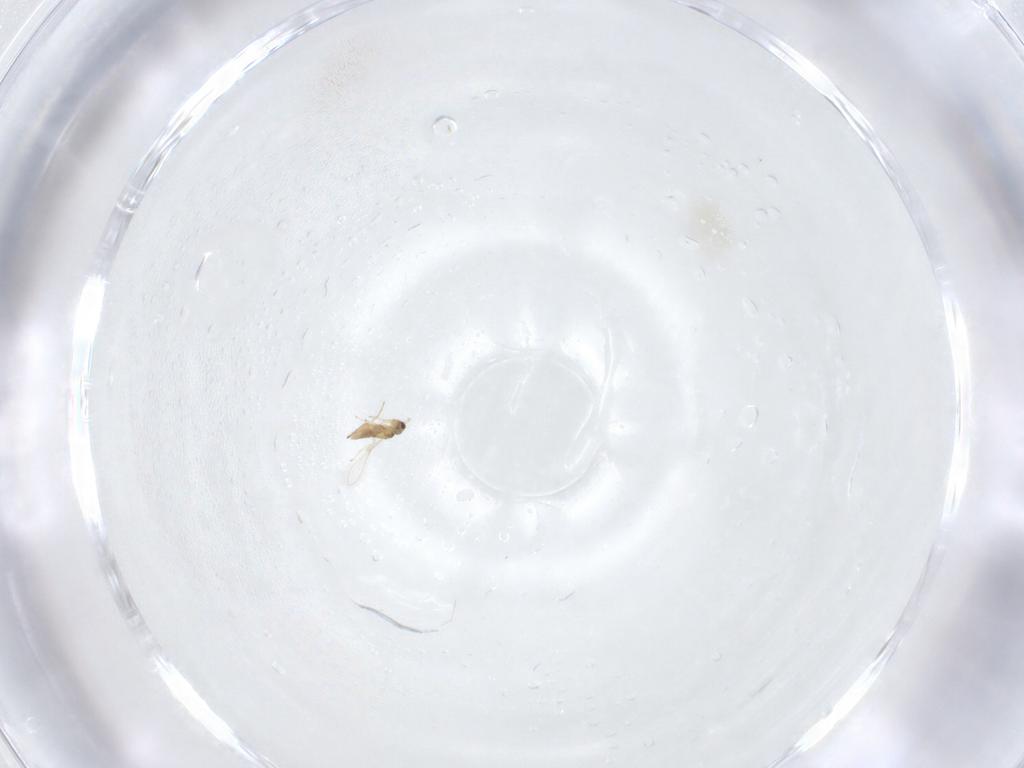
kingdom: Animalia
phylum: Arthropoda
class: Insecta
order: Hymenoptera
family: Mymaridae
